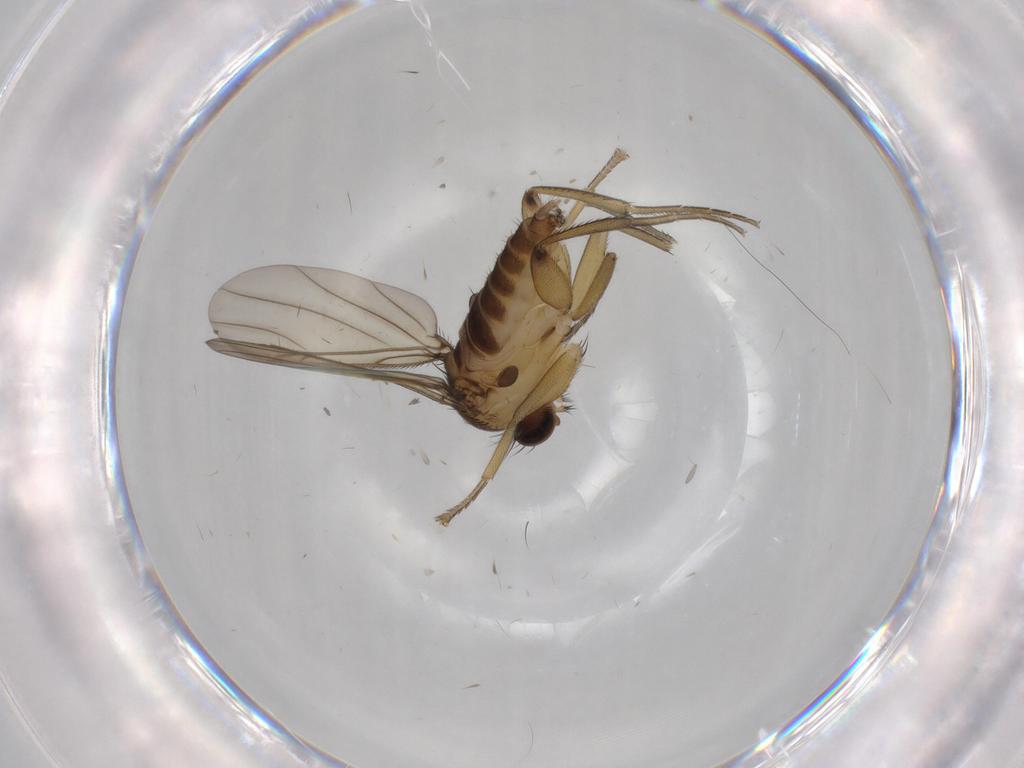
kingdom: Animalia
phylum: Arthropoda
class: Insecta
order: Diptera
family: Phoridae
